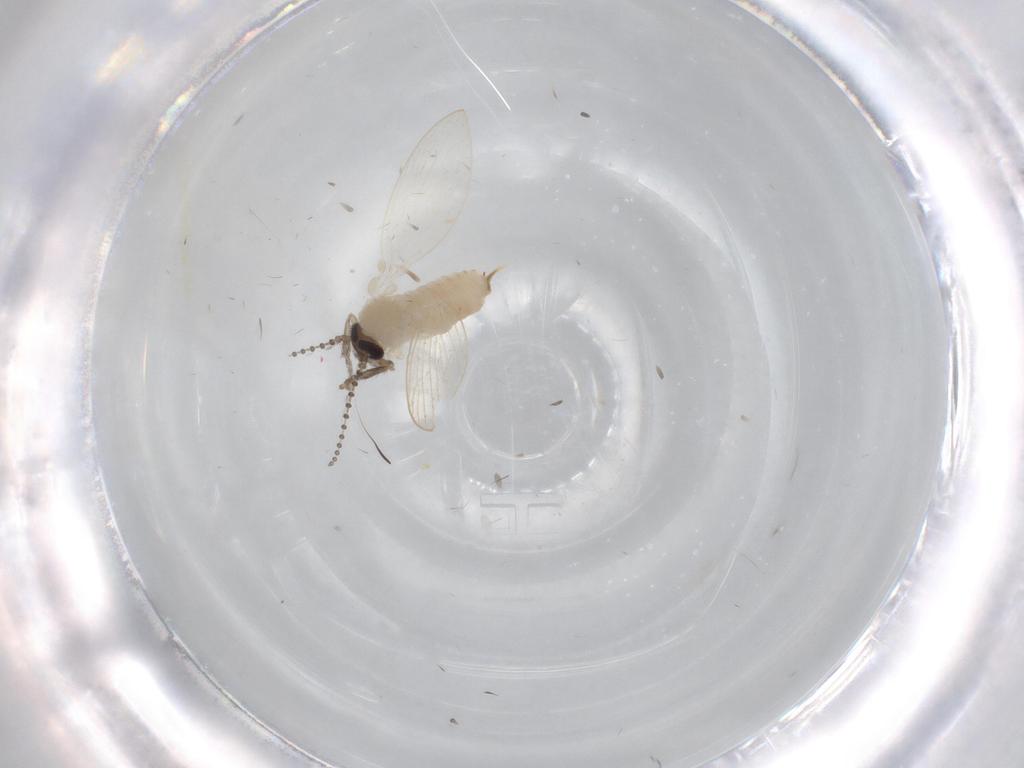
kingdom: Animalia
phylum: Arthropoda
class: Insecta
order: Diptera
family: Psychodidae
